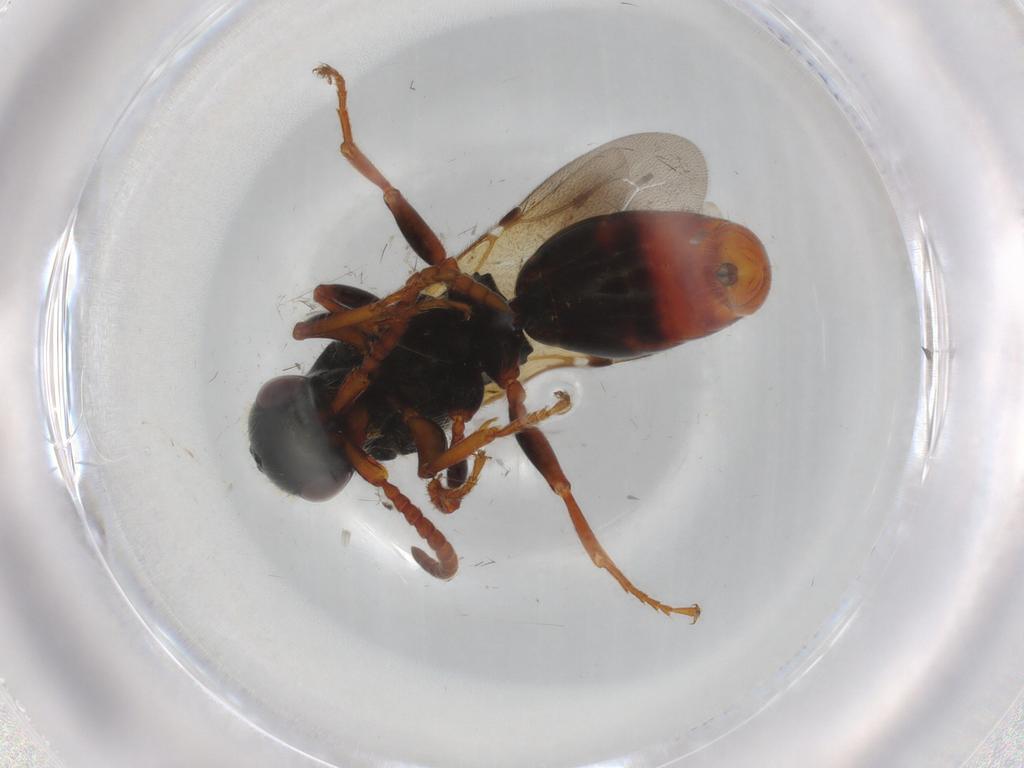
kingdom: Animalia
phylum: Arthropoda
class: Insecta
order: Hymenoptera
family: Bethylidae
